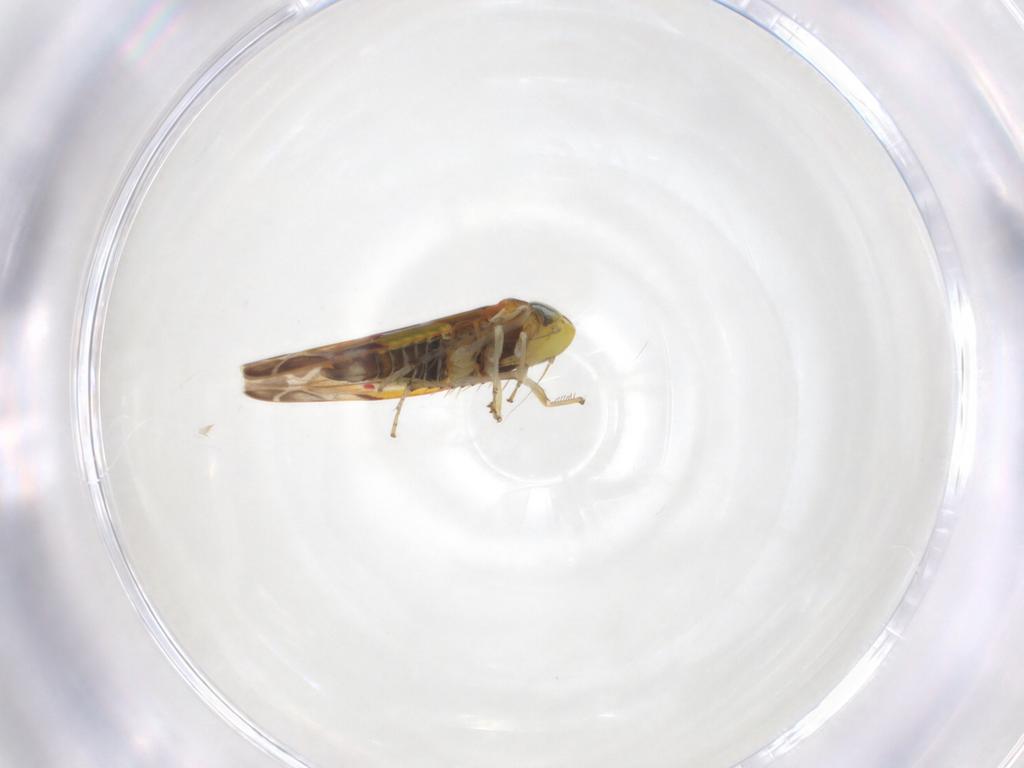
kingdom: Animalia
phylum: Arthropoda
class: Insecta
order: Hemiptera
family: Cicadellidae
